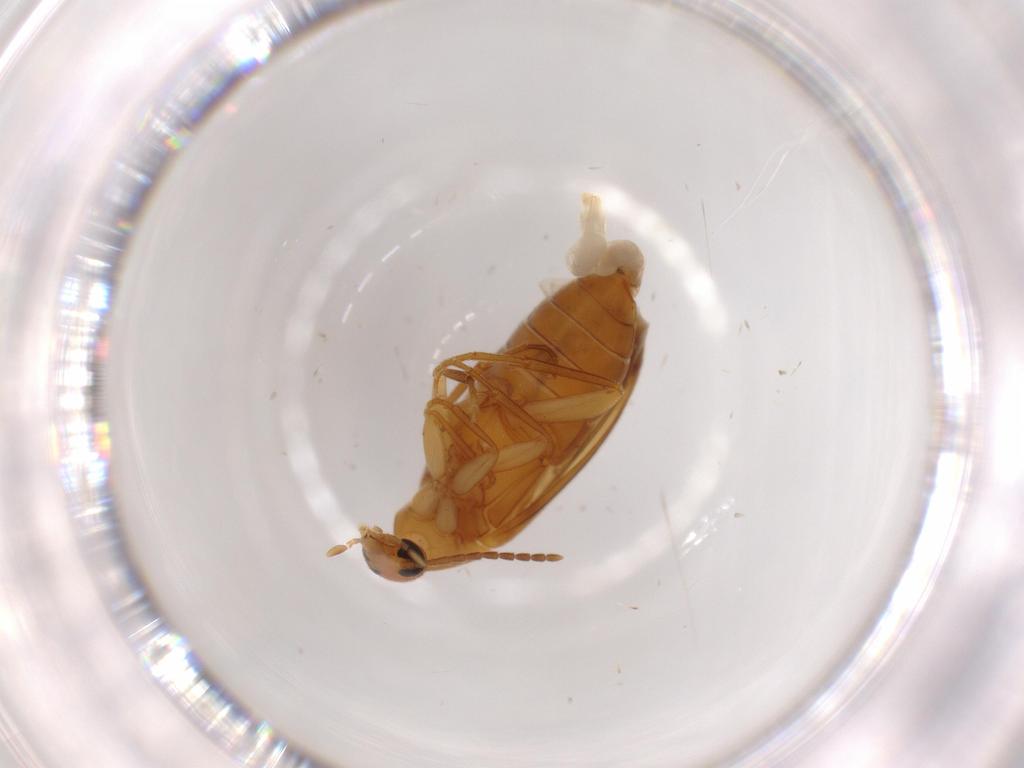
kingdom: Animalia
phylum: Arthropoda
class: Insecta
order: Coleoptera
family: Scraptiidae
